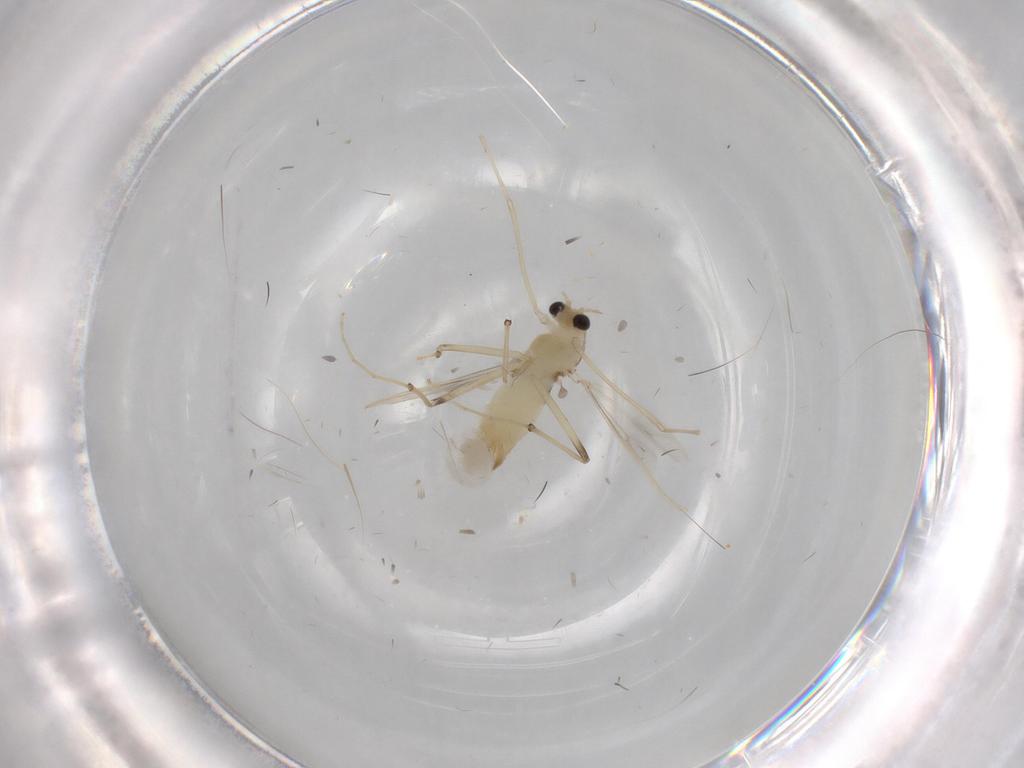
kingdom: Animalia
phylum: Arthropoda
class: Insecta
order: Diptera
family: Chironomidae
